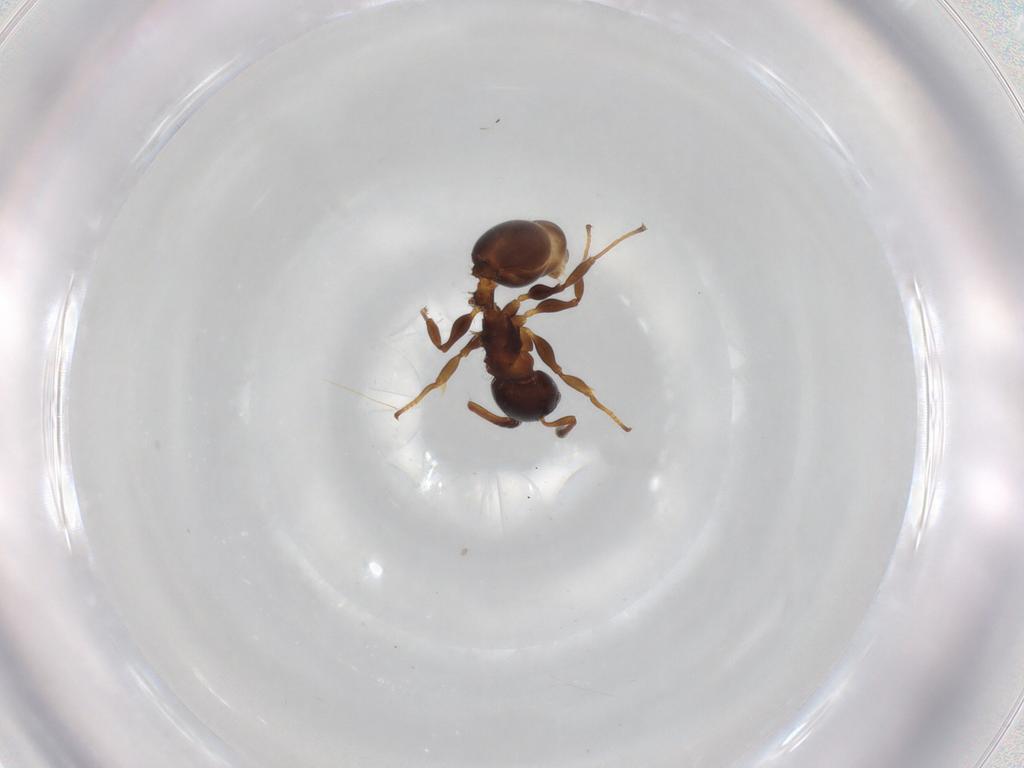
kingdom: Animalia
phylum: Arthropoda
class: Insecta
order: Hymenoptera
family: Formicidae
